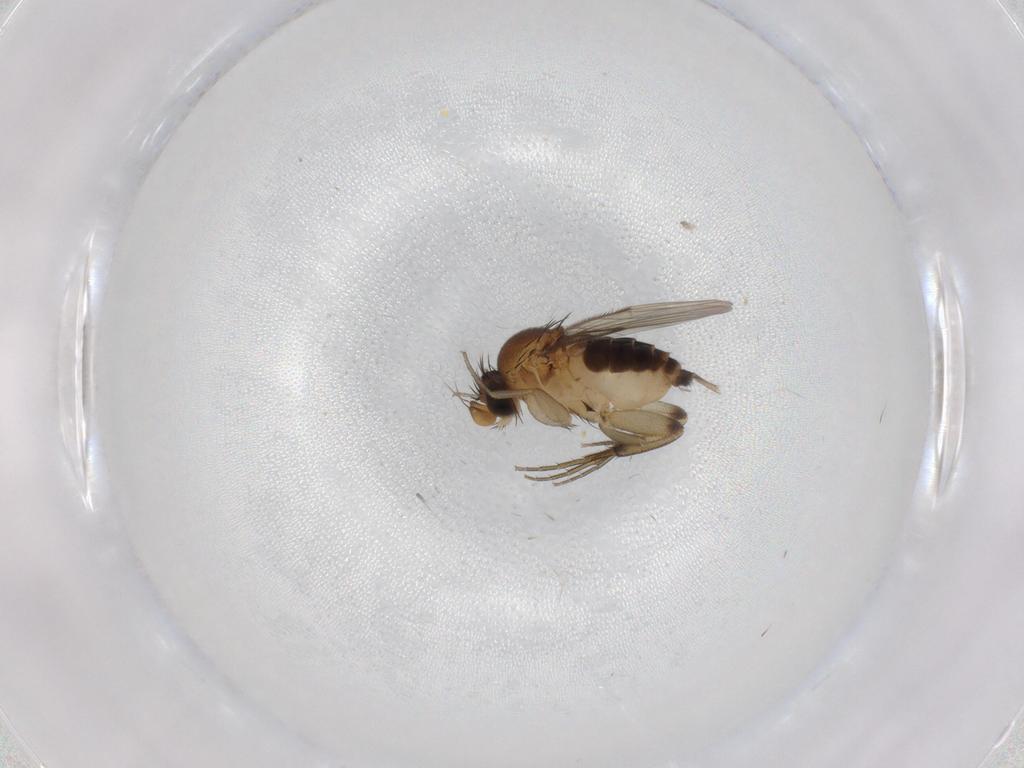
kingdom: Animalia
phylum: Arthropoda
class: Insecta
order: Diptera
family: Cecidomyiidae
